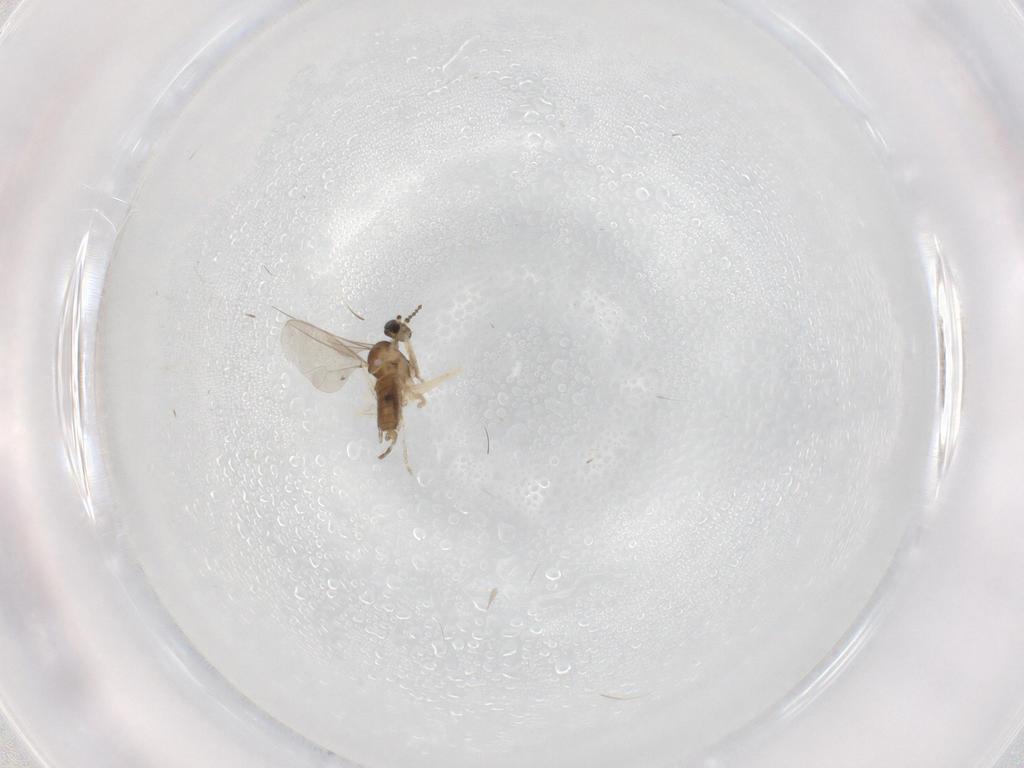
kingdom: Animalia
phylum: Arthropoda
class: Insecta
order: Diptera
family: Cecidomyiidae
